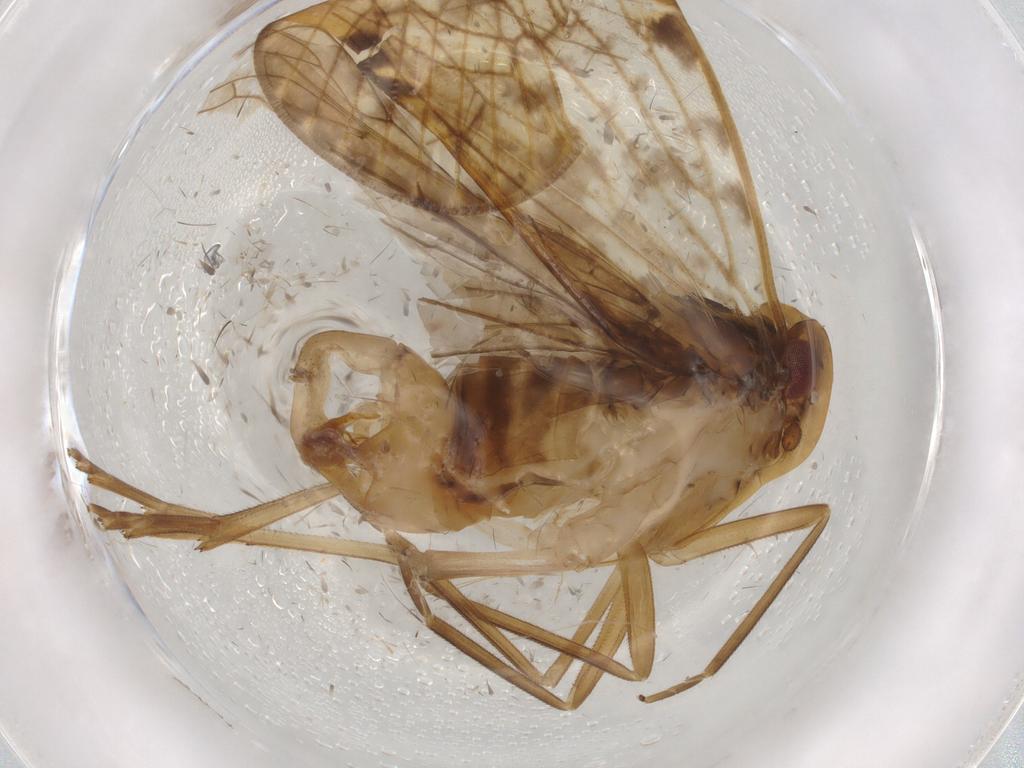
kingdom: Animalia
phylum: Arthropoda
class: Insecta
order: Hemiptera
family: Cixiidae
